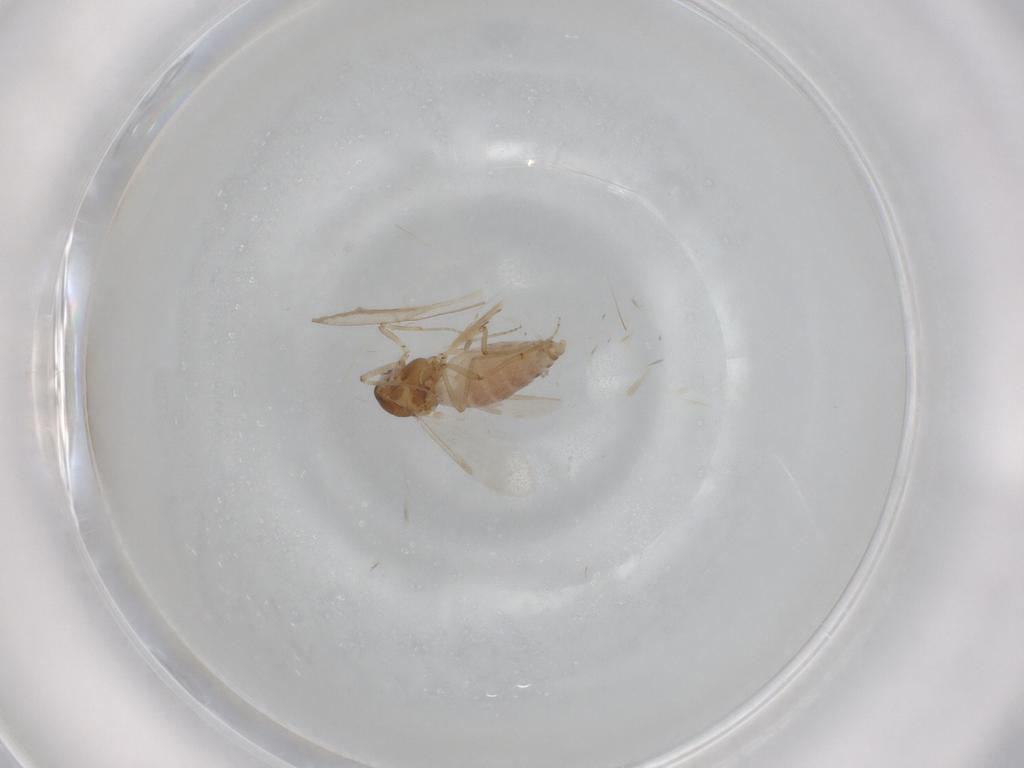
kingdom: Animalia
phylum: Arthropoda
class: Insecta
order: Diptera
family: Ceratopogonidae
